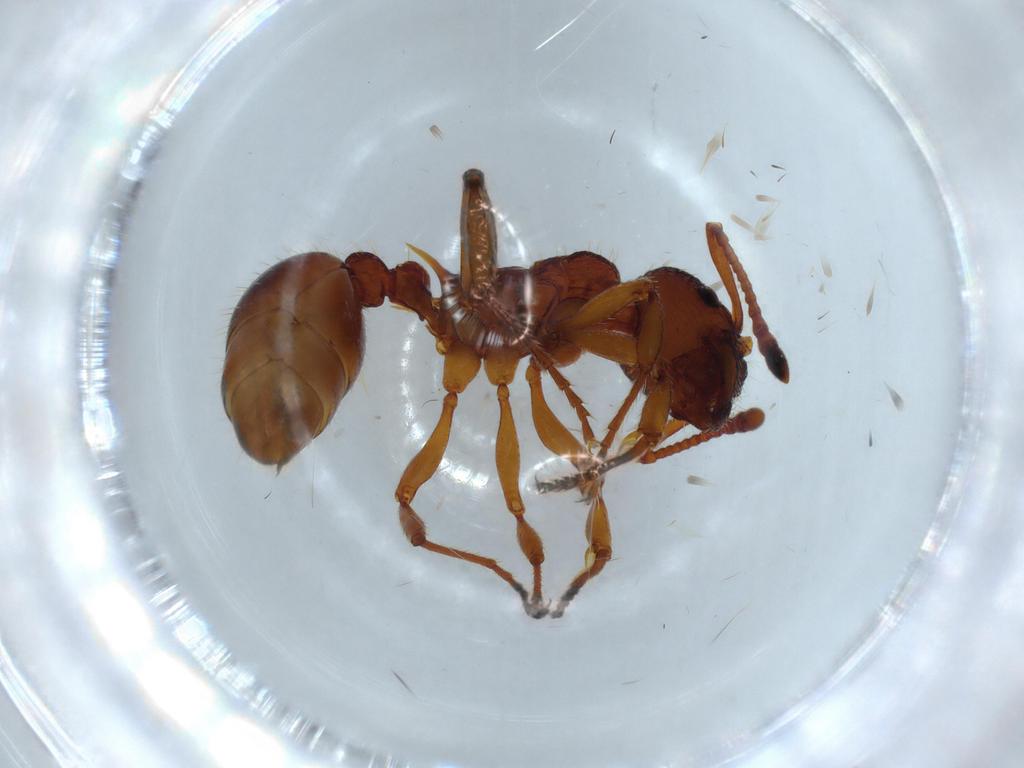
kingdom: Animalia
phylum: Arthropoda
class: Insecta
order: Hymenoptera
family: Formicidae
